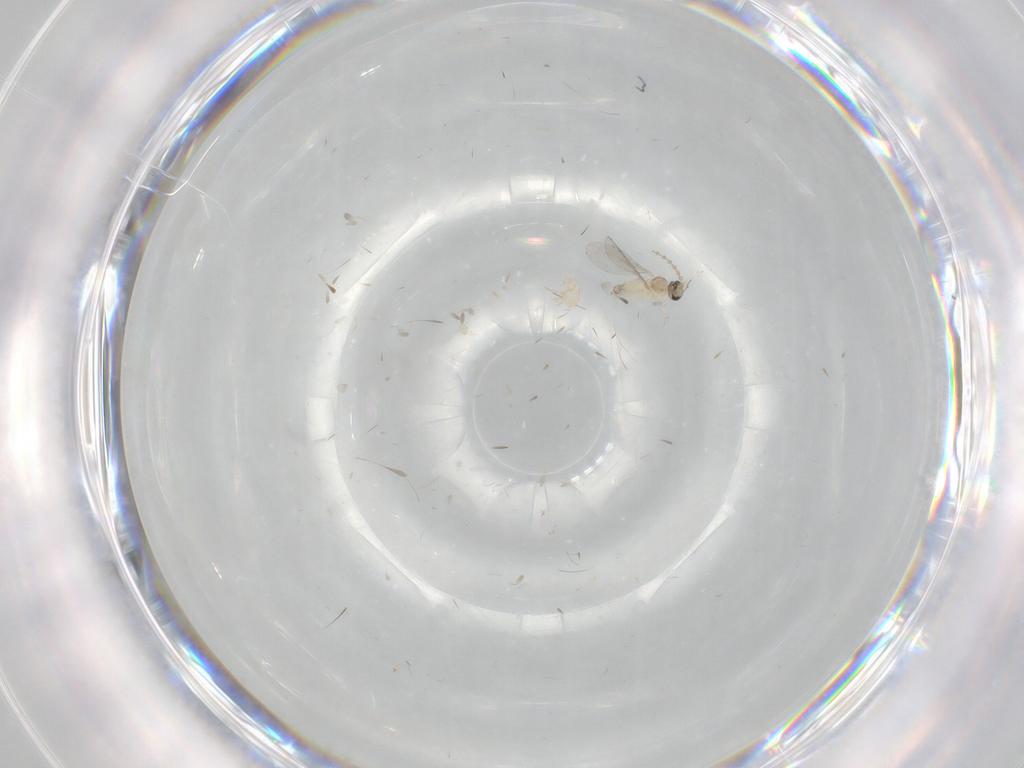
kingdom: Animalia
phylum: Arthropoda
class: Insecta
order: Diptera
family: Cecidomyiidae
